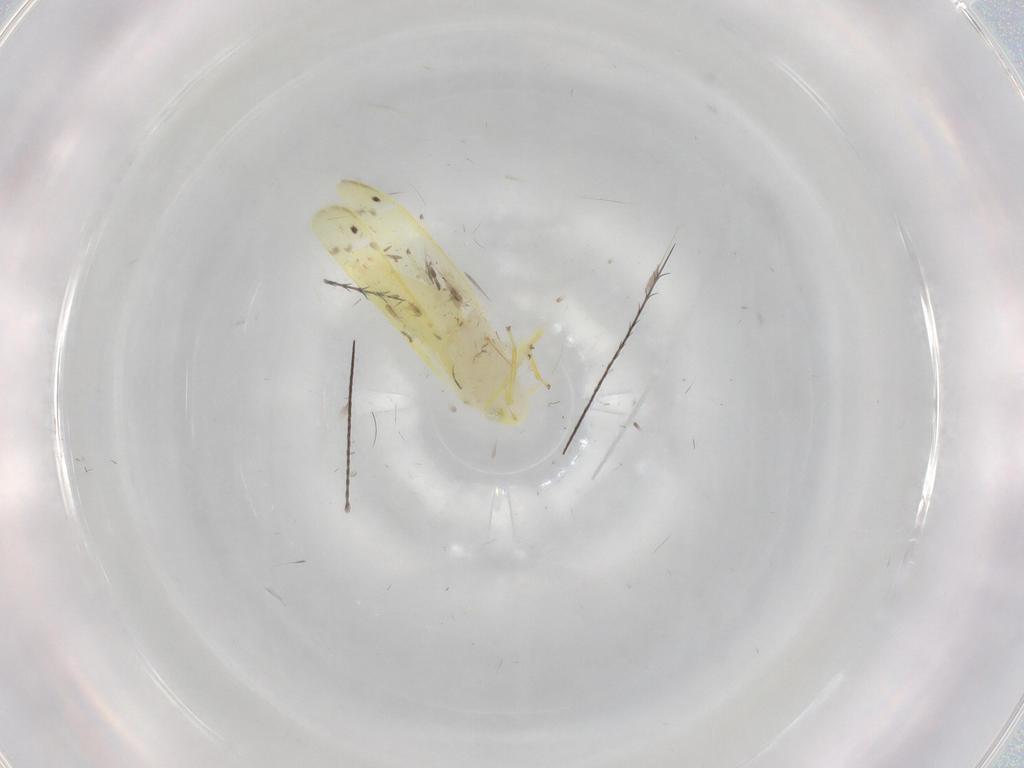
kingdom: Animalia
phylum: Arthropoda
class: Insecta
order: Hemiptera
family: Cicadellidae
